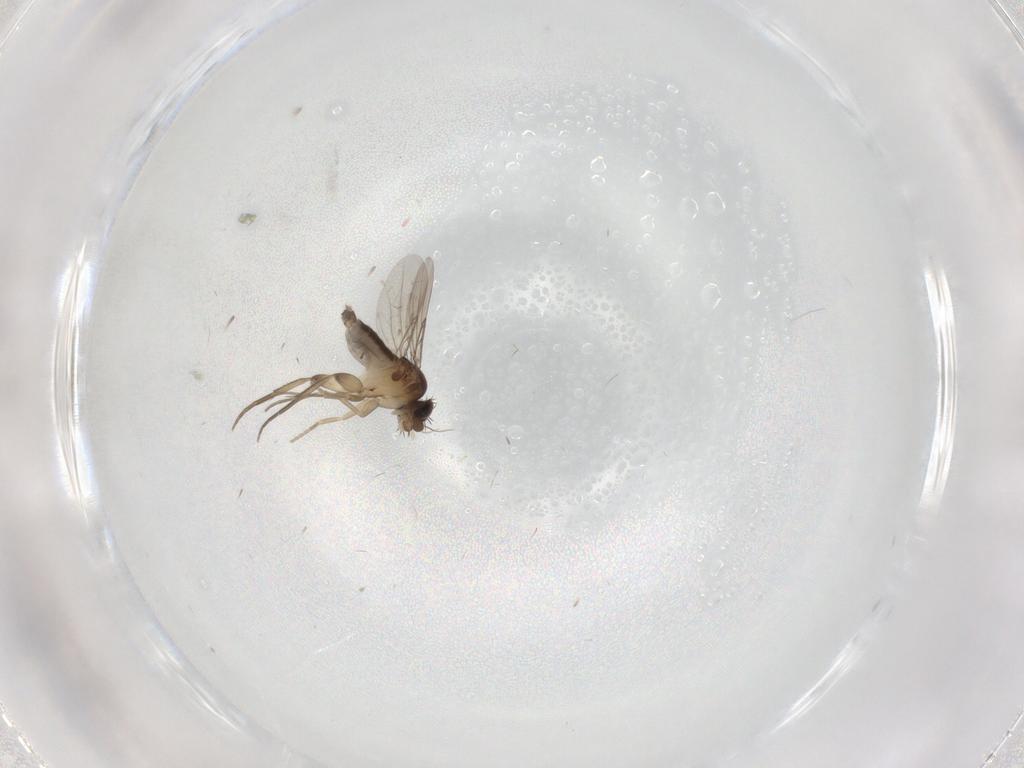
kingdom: Animalia
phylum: Arthropoda
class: Insecta
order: Diptera
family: Phoridae
